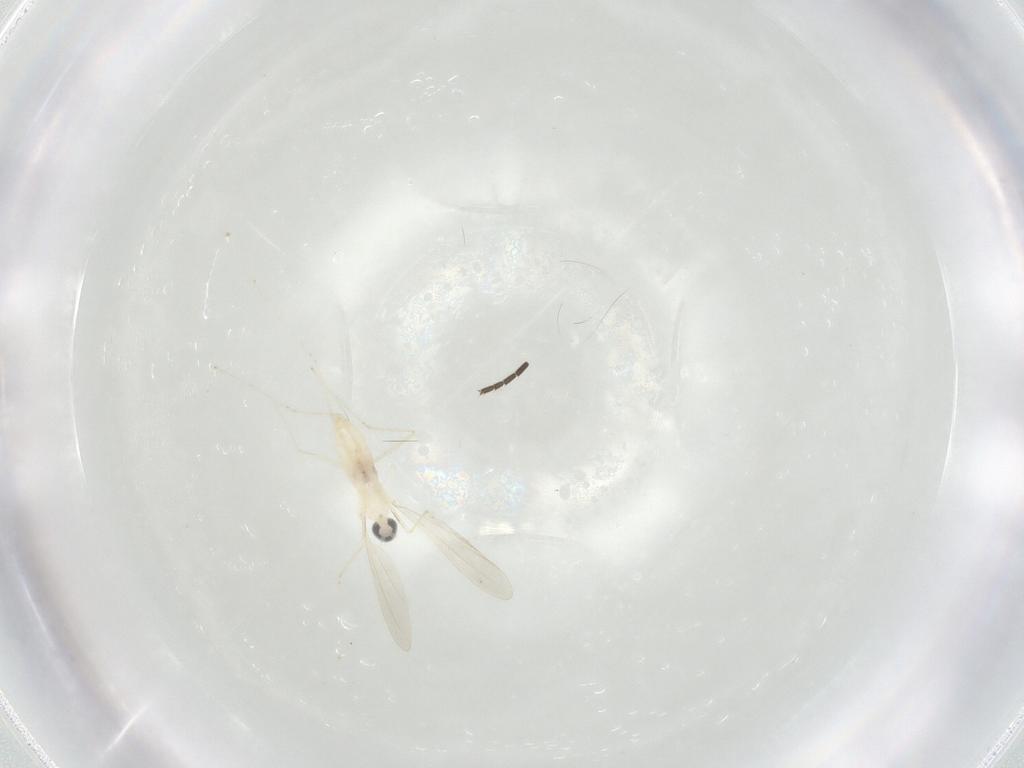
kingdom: Animalia
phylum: Arthropoda
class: Insecta
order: Diptera
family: Sciaridae
